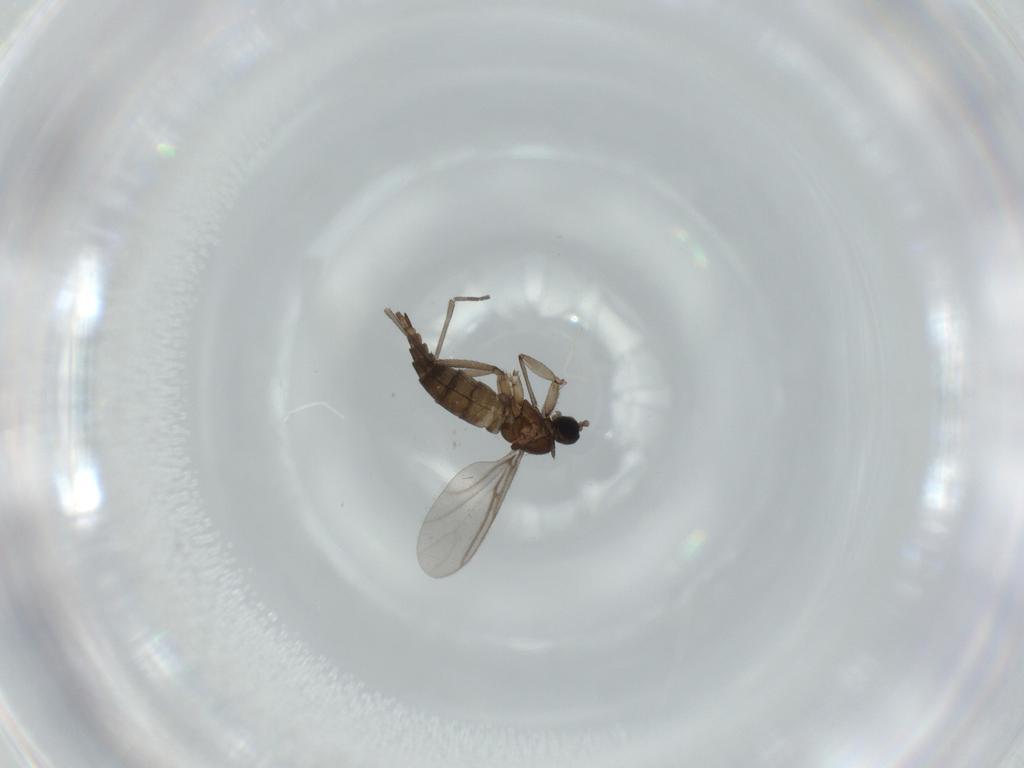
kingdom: Animalia
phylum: Arthropoda
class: Insecta
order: Diptera
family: Cecidomyiidae
